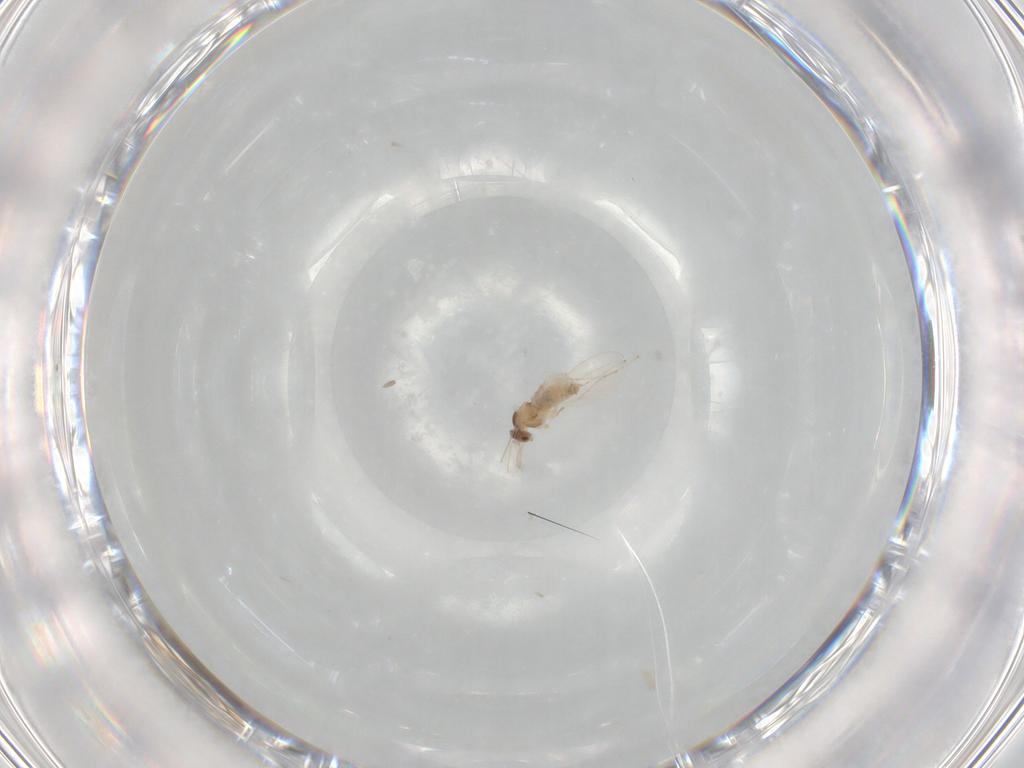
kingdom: Animalia
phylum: Arthropoda
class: Insecta
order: Diptera
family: Cecidomyiidae
